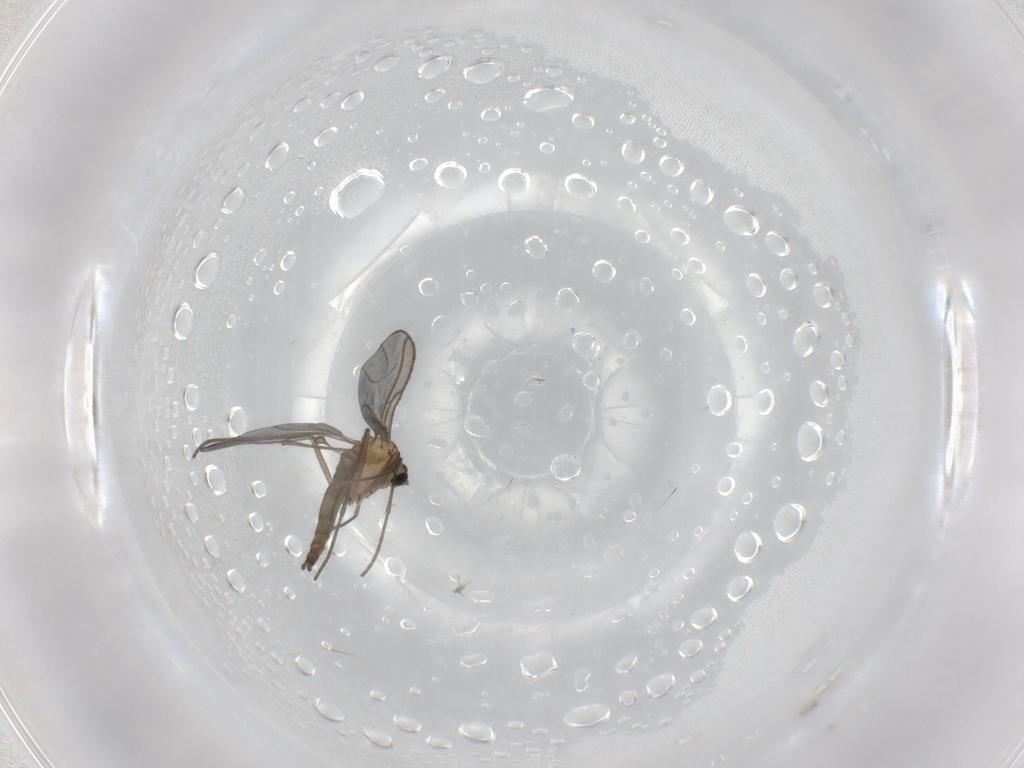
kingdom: Animalia
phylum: Arthropoda
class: Insecta
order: Diptera
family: Sciaridae
